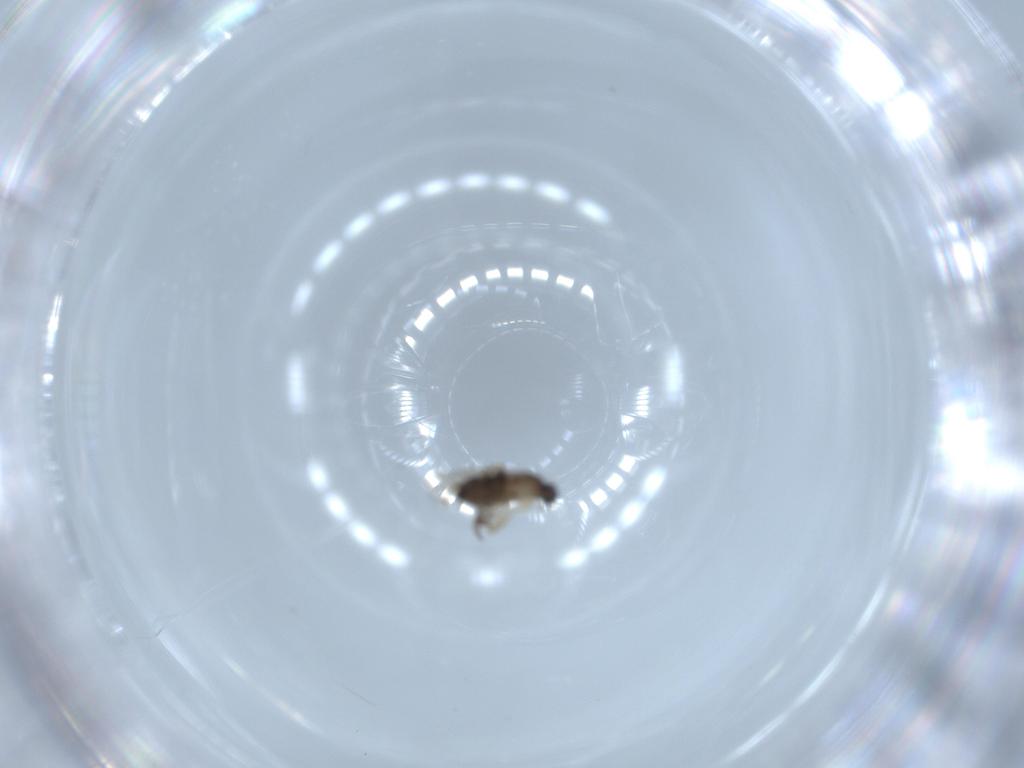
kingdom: Animalia
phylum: Arthropoda
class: Insecta
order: Diptera
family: Phoridae
